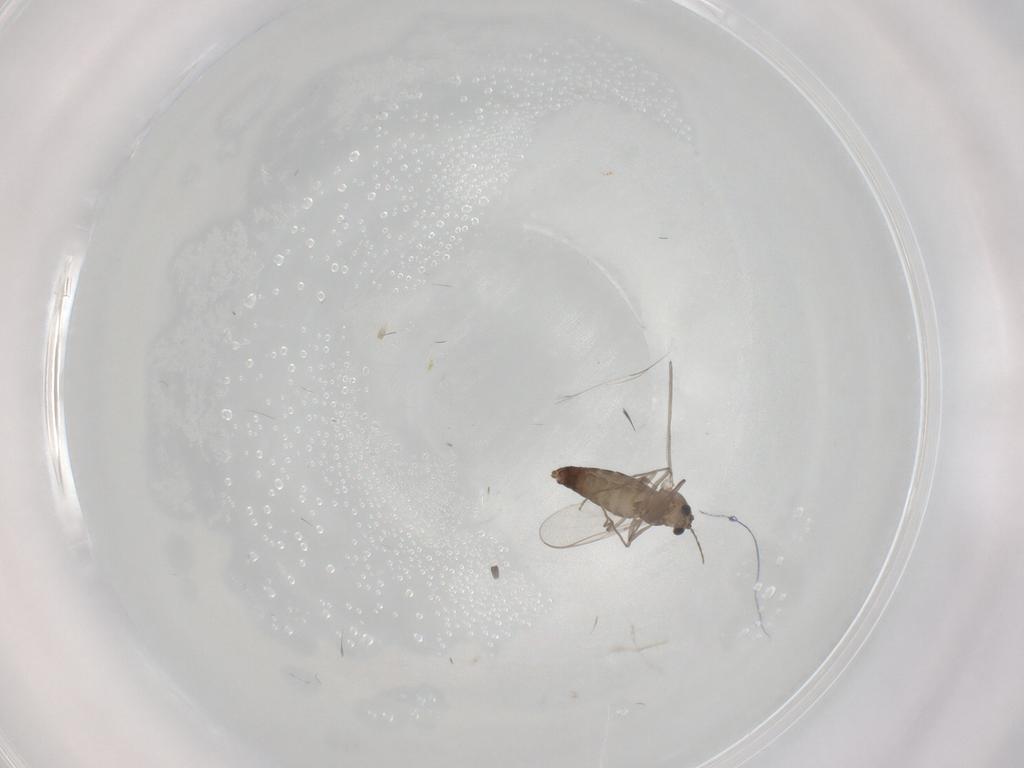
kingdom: Animalia
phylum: Arthropoda
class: Insecta
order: Diptera
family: Chironomidae
